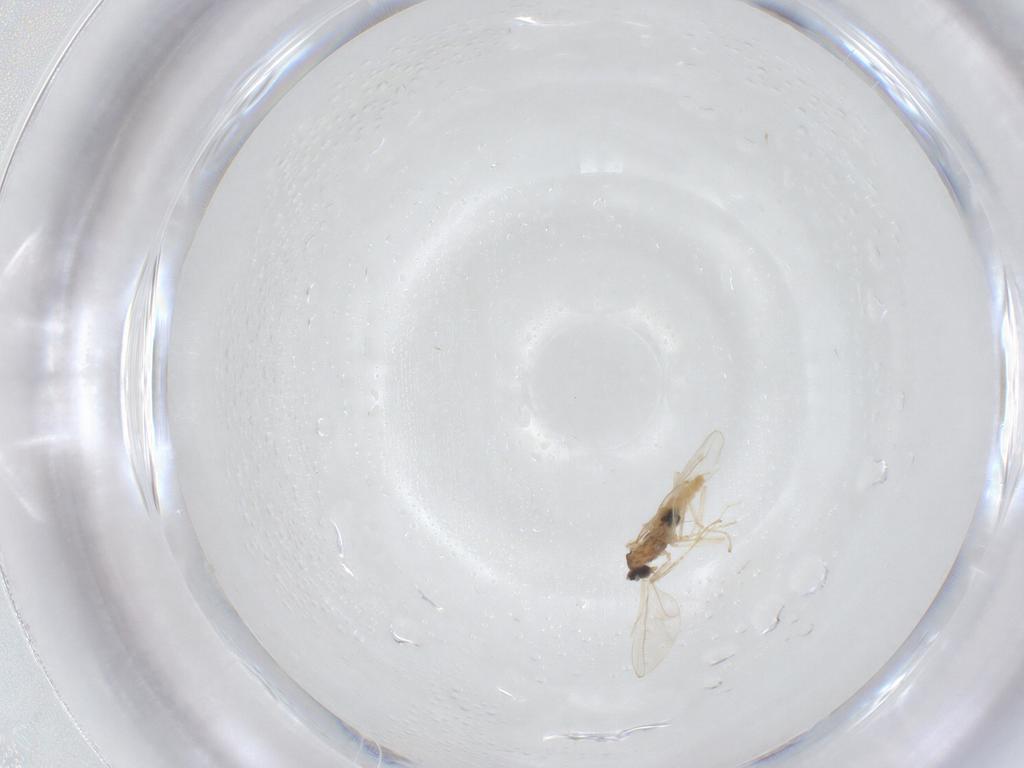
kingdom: Animalia
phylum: Arthropoda
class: Insecta
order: Diptera
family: Cecidomyiidae
